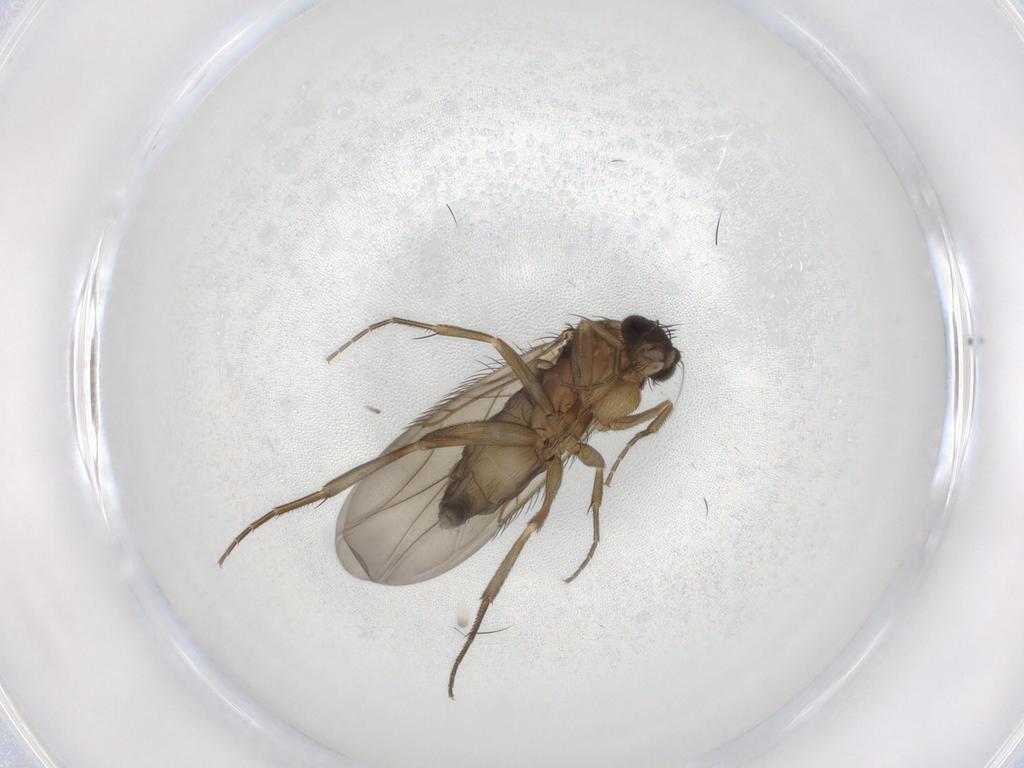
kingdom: Animalia
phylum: Arthropoda
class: Insecta
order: Diptera
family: Phoridae
